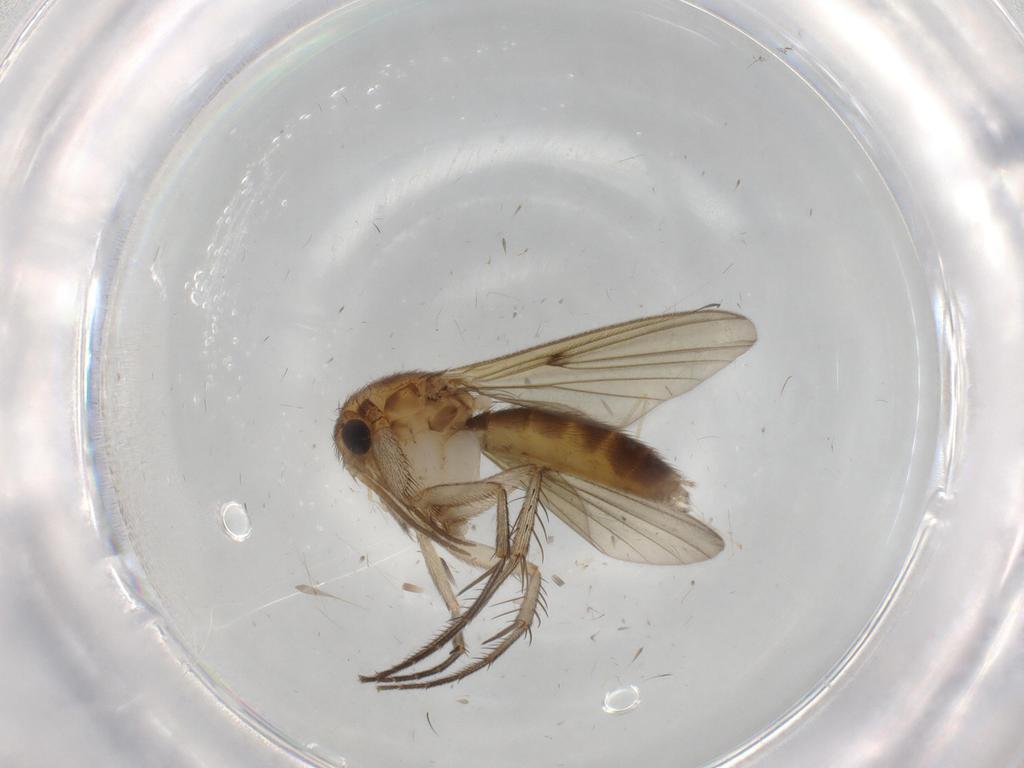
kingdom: Animalia
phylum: Arthropoda
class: Insecta
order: Diptera
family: Mycetophilidae
